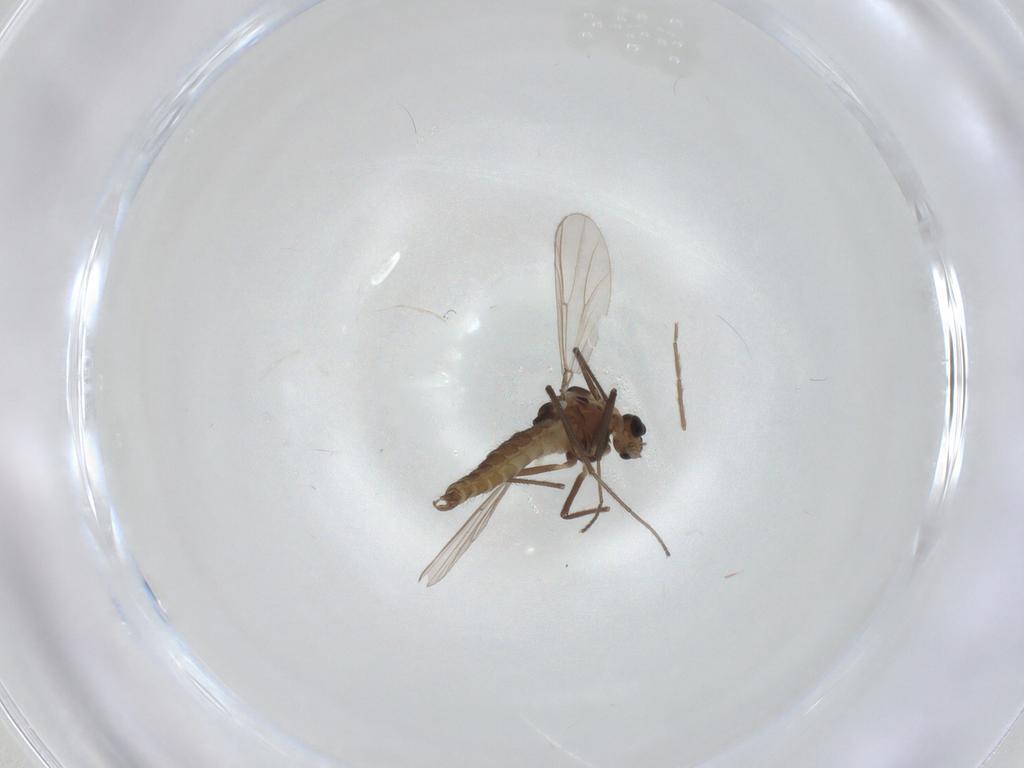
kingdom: Animalia
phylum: Arthropoda
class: Insecta
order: Diptera
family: Chironomidae
